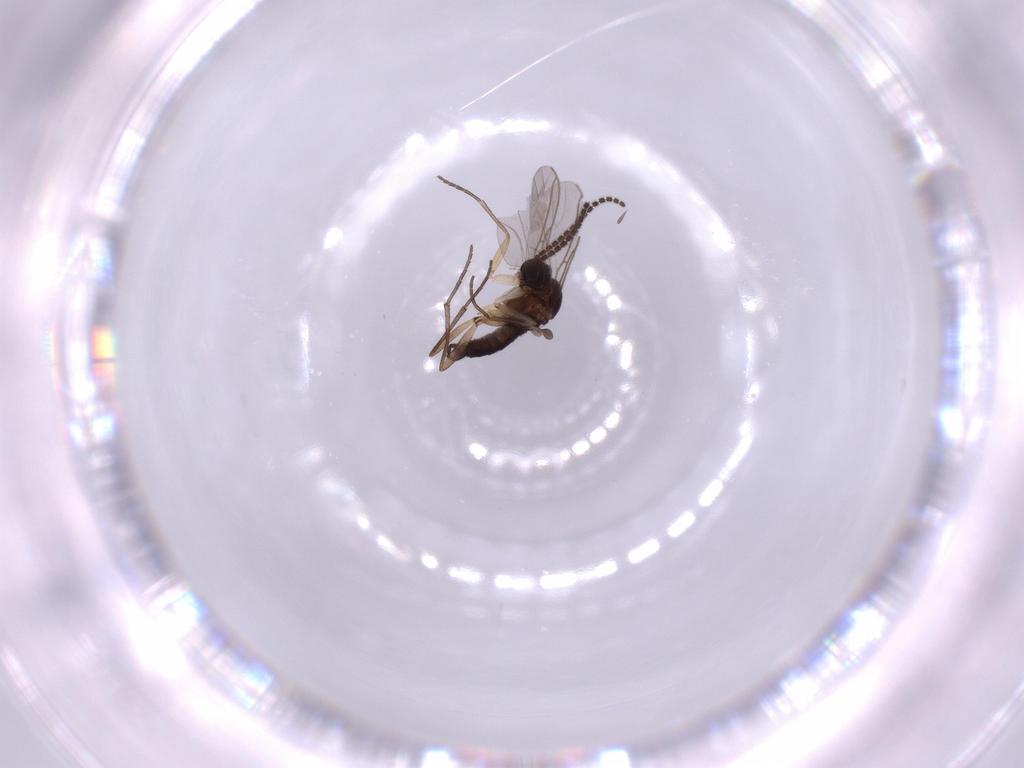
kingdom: Animalia
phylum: Arthropoda
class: Insecta
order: Diptera
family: Sciaridae
